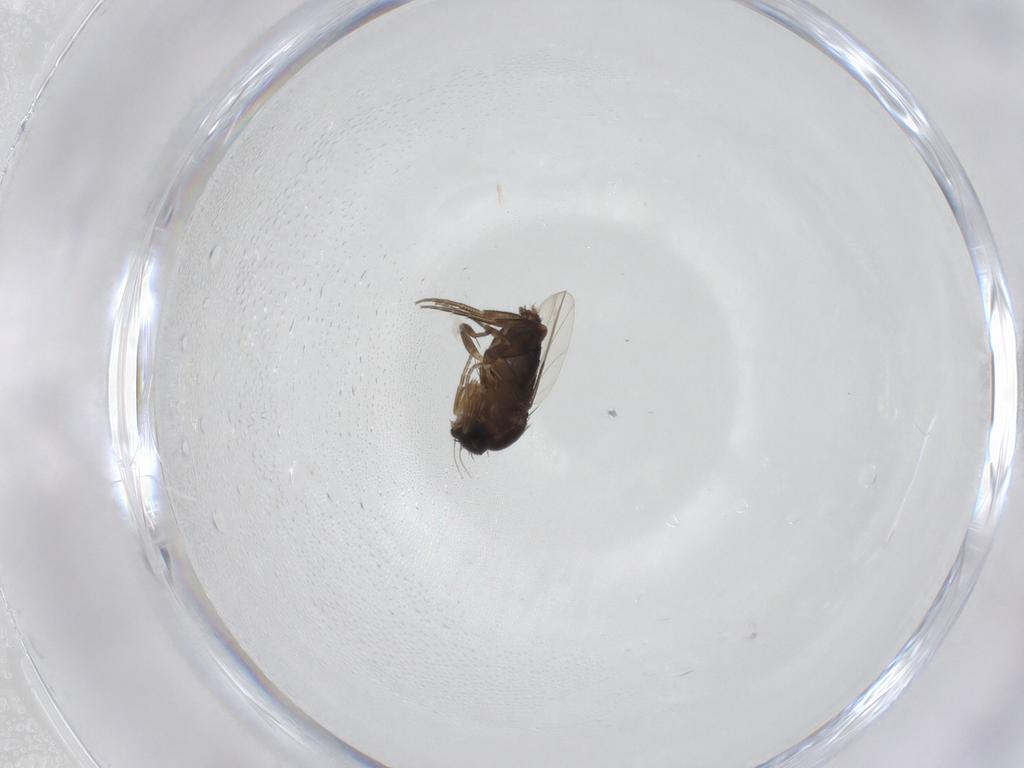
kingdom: Animalia
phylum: Arthropoda
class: Insecta
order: Diptera
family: Phoridae
